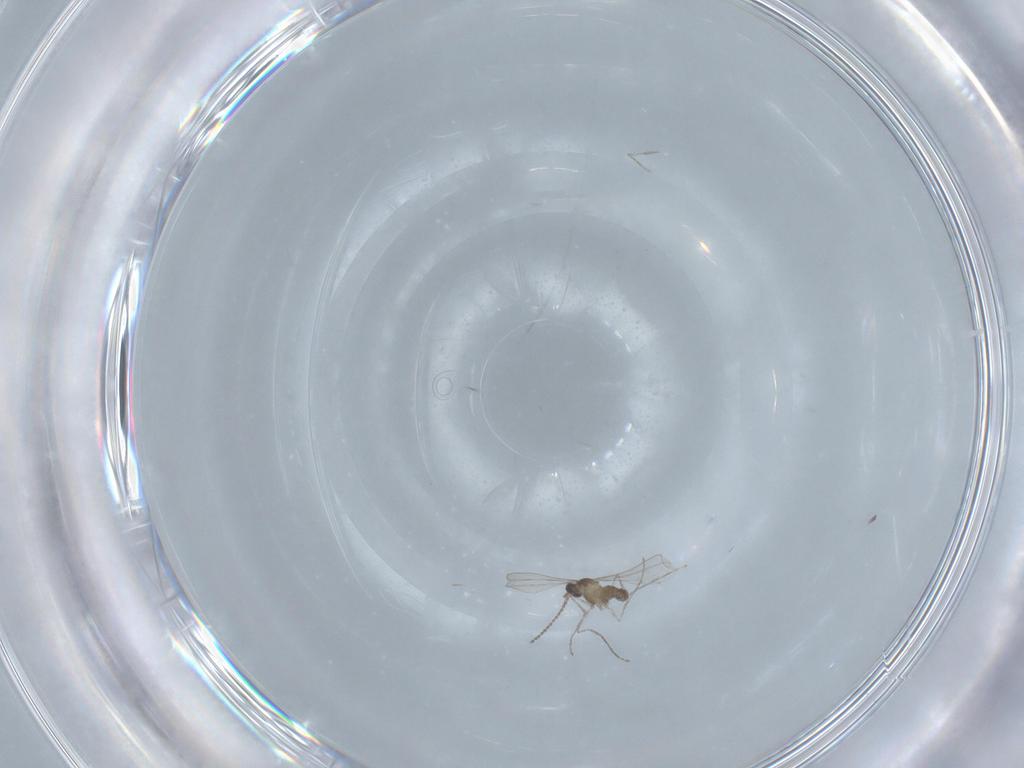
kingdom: Animalia
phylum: Arthropoda
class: Insecta
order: Diptera
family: Cecidomyiidae
